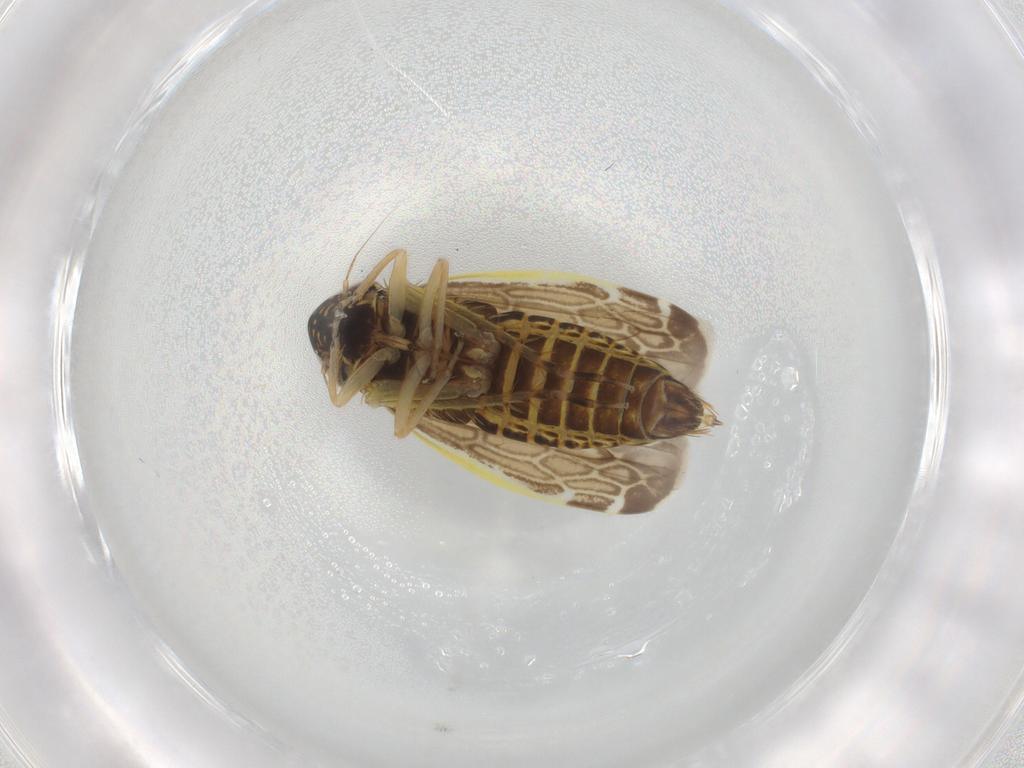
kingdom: Animalia
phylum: Arthropoda
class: Insecta
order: Hemiptera
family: Cicadellidae
